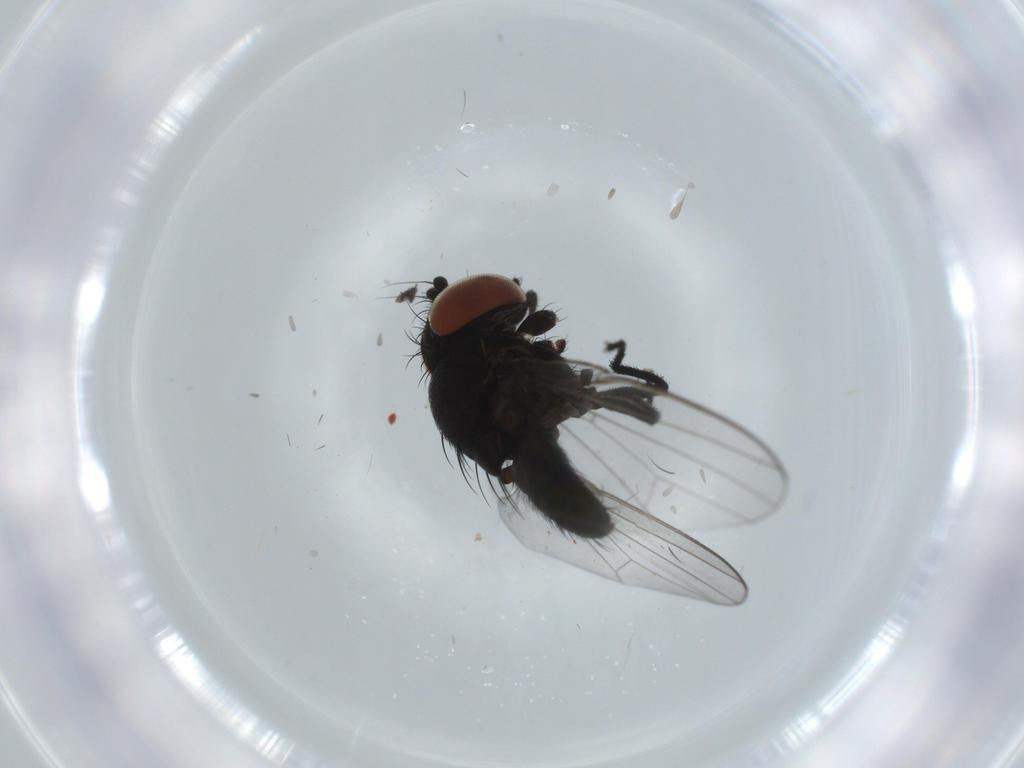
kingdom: Animalia
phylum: Arthropoda
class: Insecta
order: Diptera
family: Milichiidae
